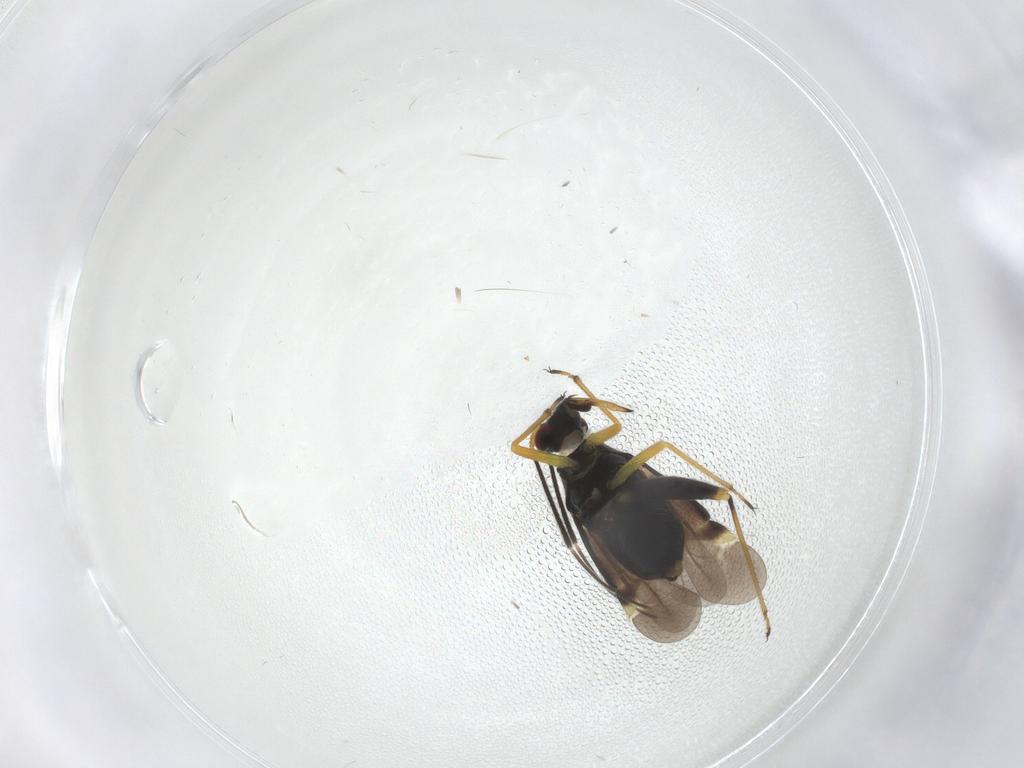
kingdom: Animalia
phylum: Arthropoda
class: Insecta
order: Hemiptera
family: Miridae
